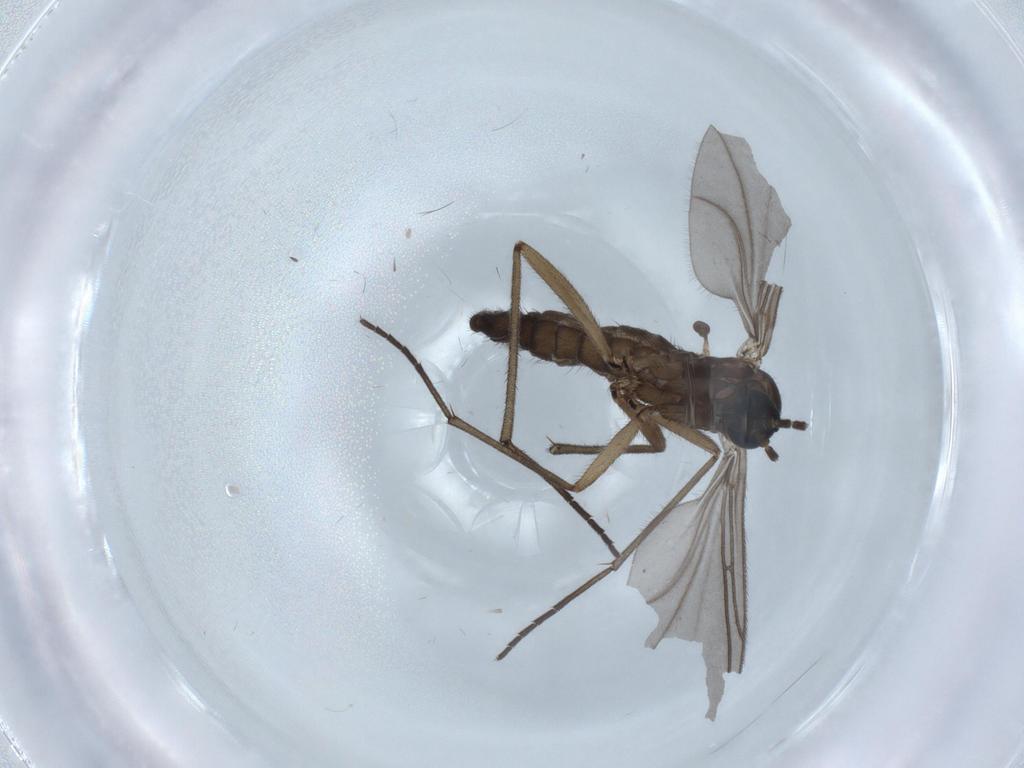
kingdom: Animalia
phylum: Arthropoda
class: Insecta
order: Diptera
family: Sciaridae
